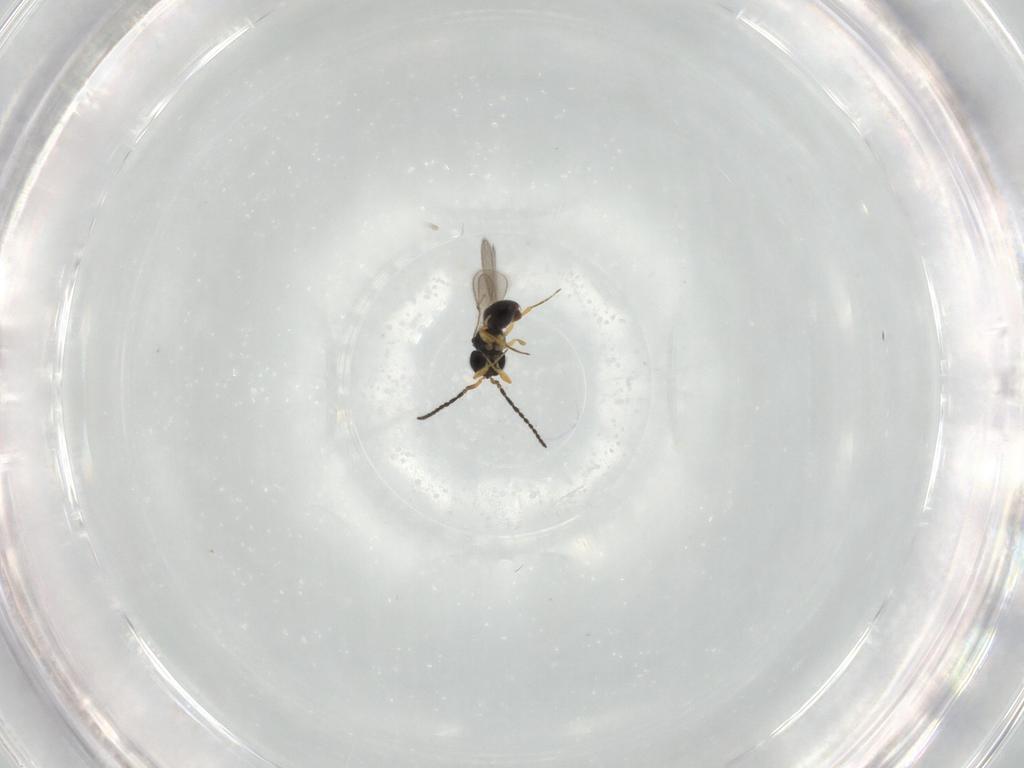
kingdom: Animalia
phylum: Arthropoda
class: Insecta
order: Hymenoptera
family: Scelionidae
